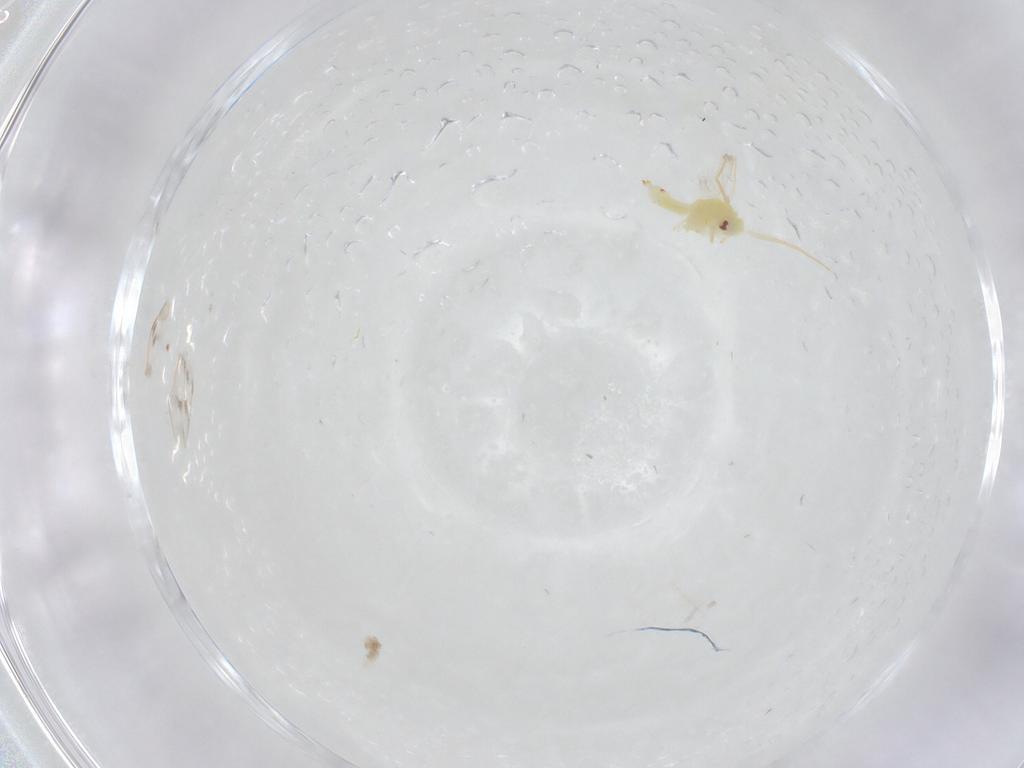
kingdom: Animalia
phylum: Arthropoda
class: Insecta
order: Hemiptera
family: Aleyrodidae
